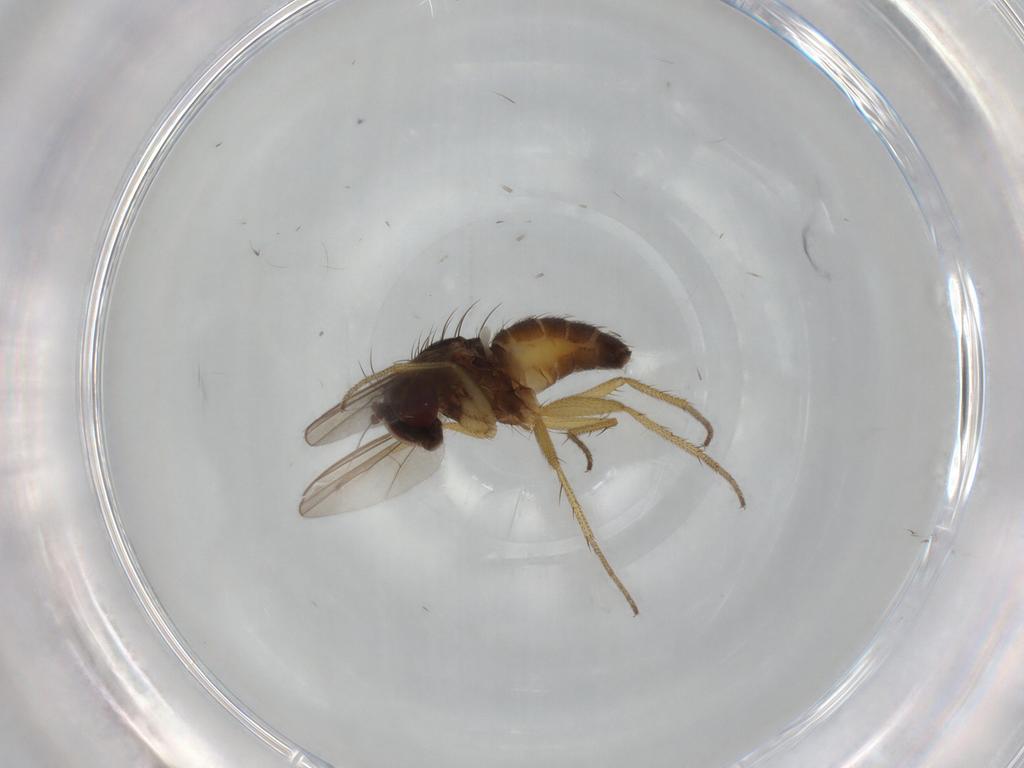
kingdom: Animalia
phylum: Arthropoda
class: Insecta
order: Diptera
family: Dolichopodidae
